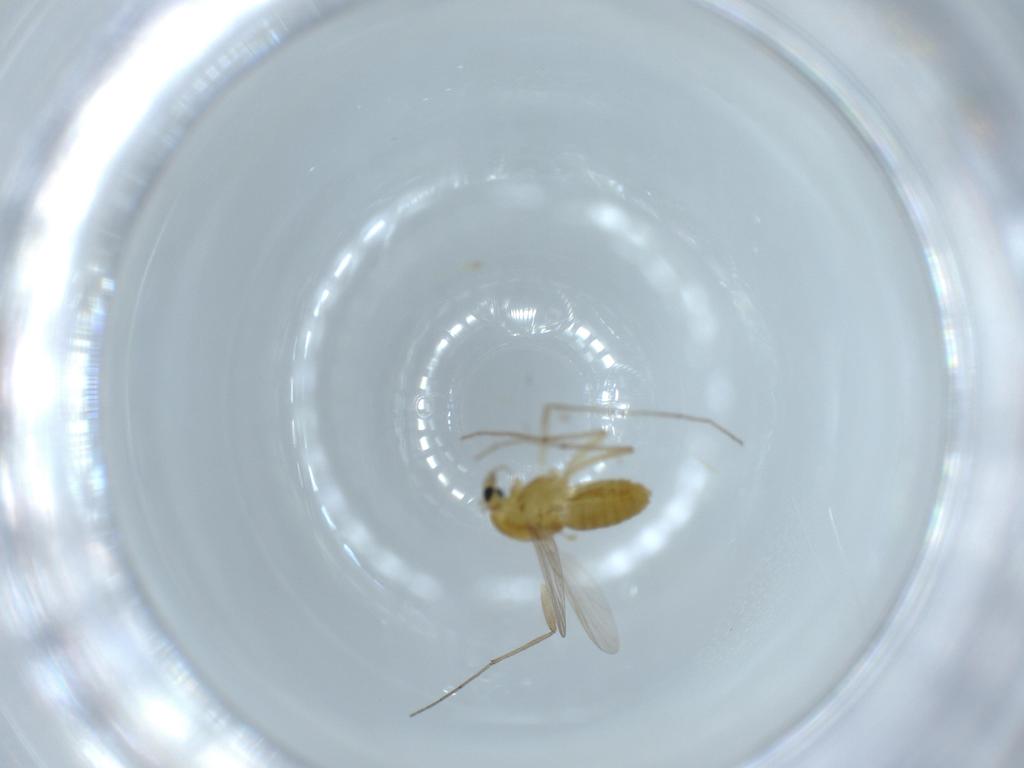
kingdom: Animalia
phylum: Arthropoda
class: Insecta
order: Diptera
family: Chironomidae
